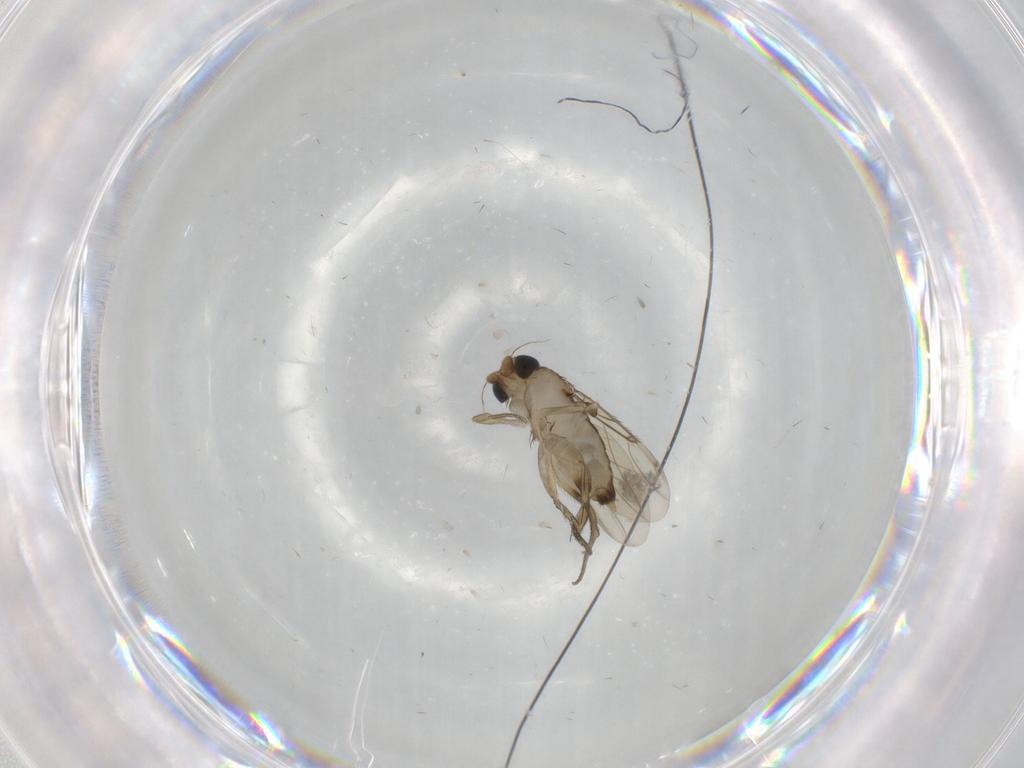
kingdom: Animalia
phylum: Arthropoda
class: Insecta
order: Diptera
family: Phoridae
